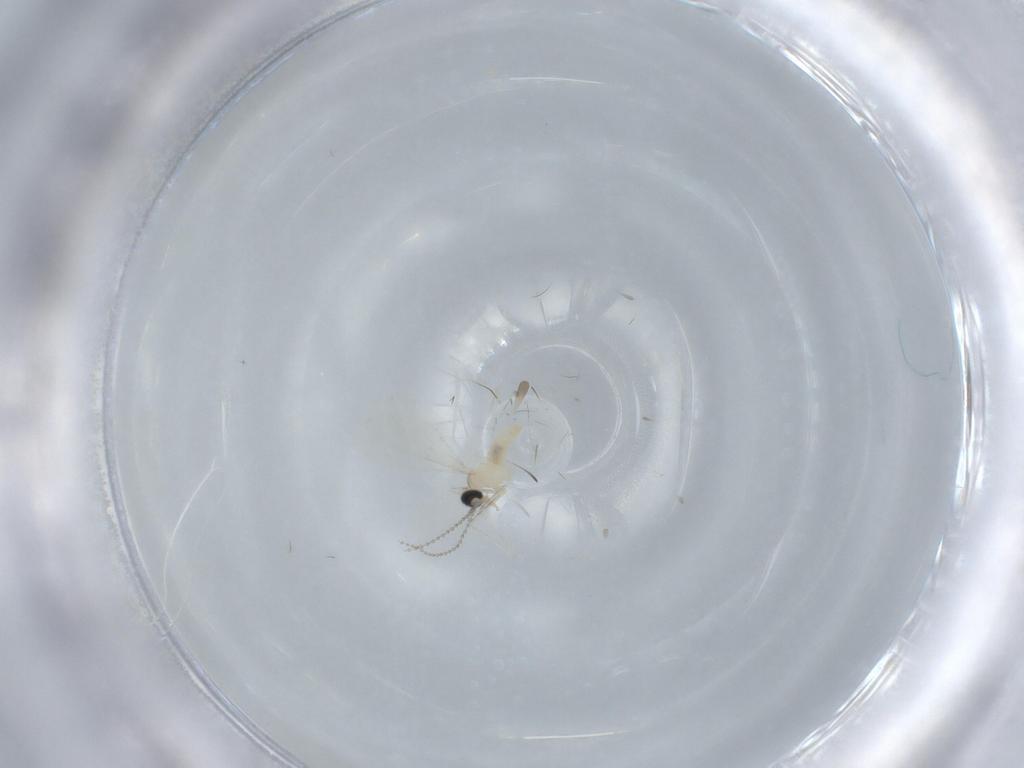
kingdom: Animalia
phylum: Arthropoda
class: Insecta
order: Diptera
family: Cecidomyiidae
